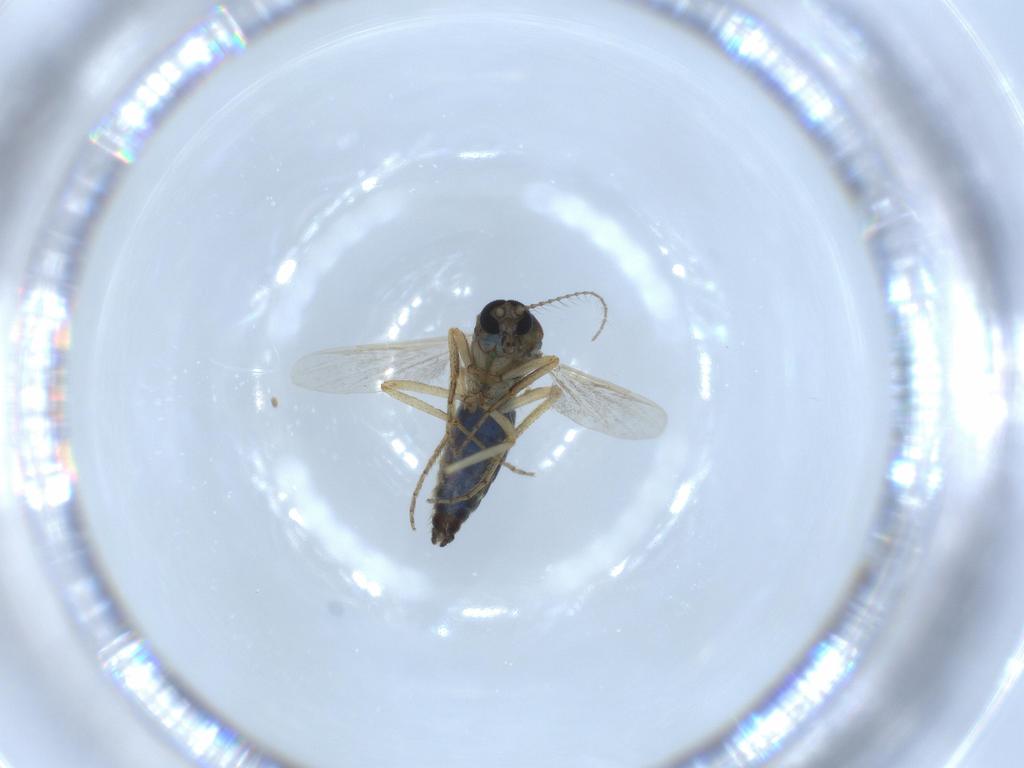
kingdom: Animalia
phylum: Arthropoda
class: Insecta
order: Diptera
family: Ceratopogonidae
